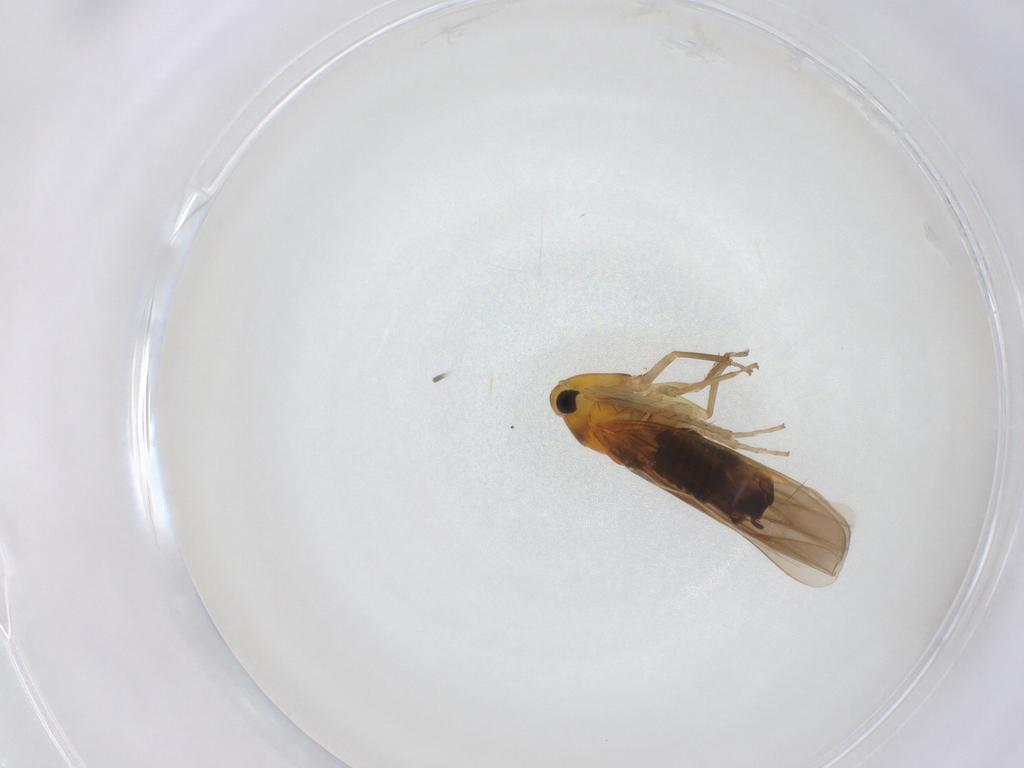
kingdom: Animalia
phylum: Arthropoda
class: Insecta
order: Hemiptera
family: Cicadellidae
